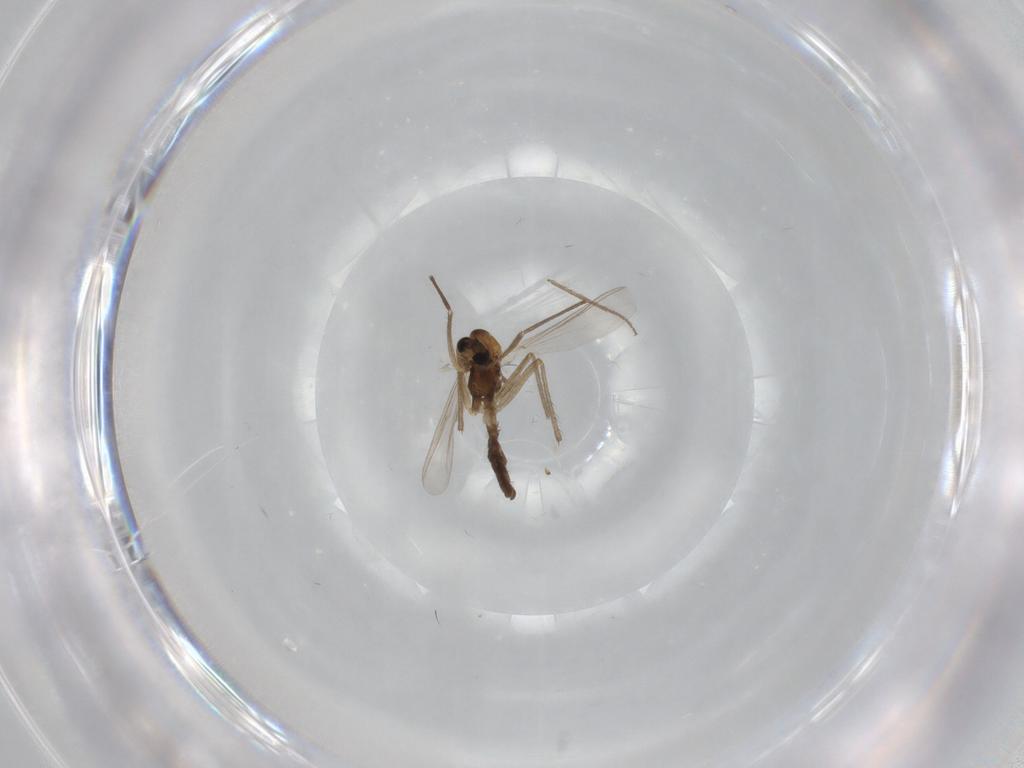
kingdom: Animalia
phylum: Arthropoda
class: Insecta
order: Diptera
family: Chironomidae
